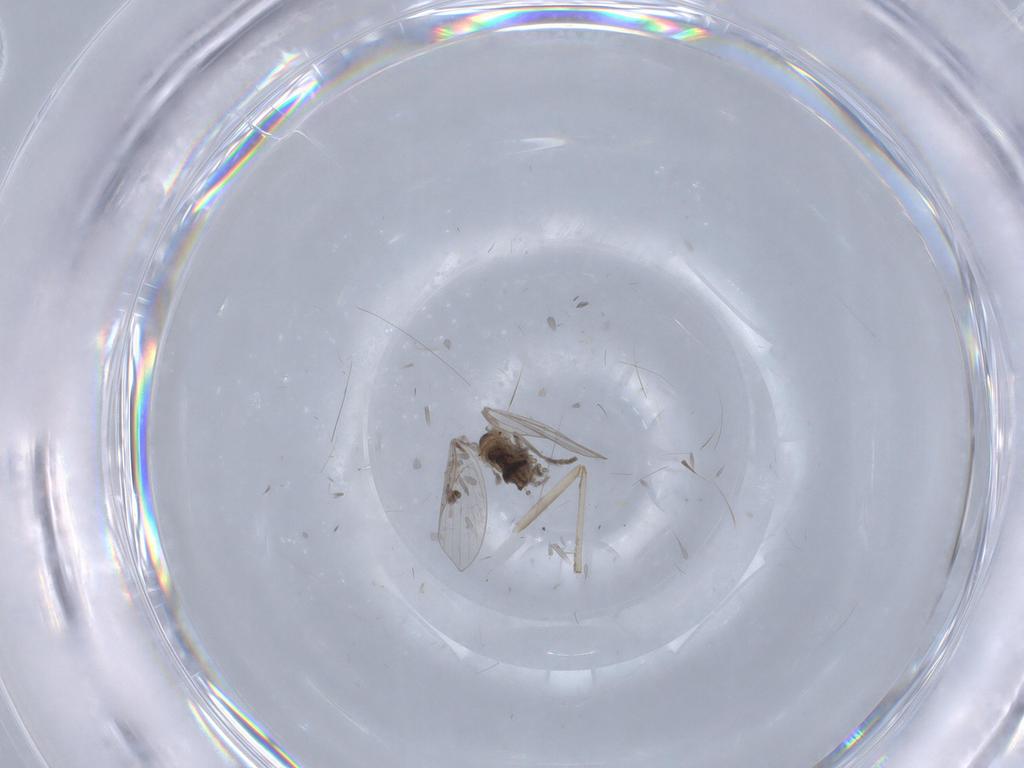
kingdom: Animalia
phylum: Arthropoda
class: Insecta
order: Diptera
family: Psychodidae
